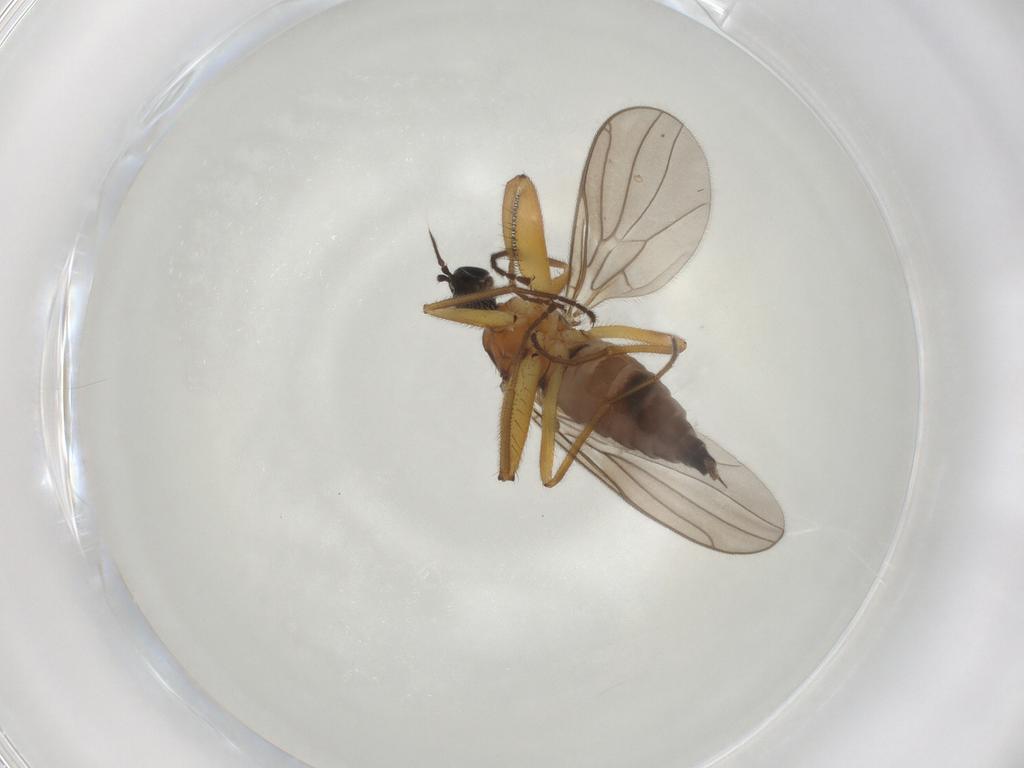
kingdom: Animalia
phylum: Arthropoda
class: Insecta
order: Diptera
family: Hybotidae
